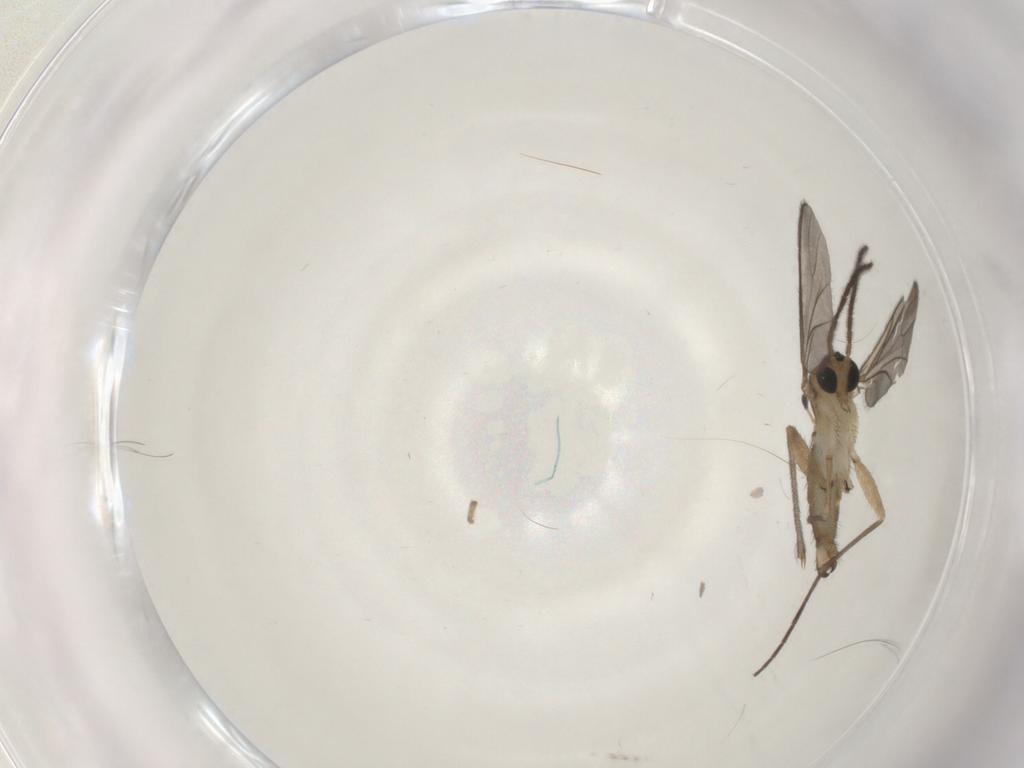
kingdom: Animalia
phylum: Arthropoda
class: Insecta
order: Diptera
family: Sciaridae
